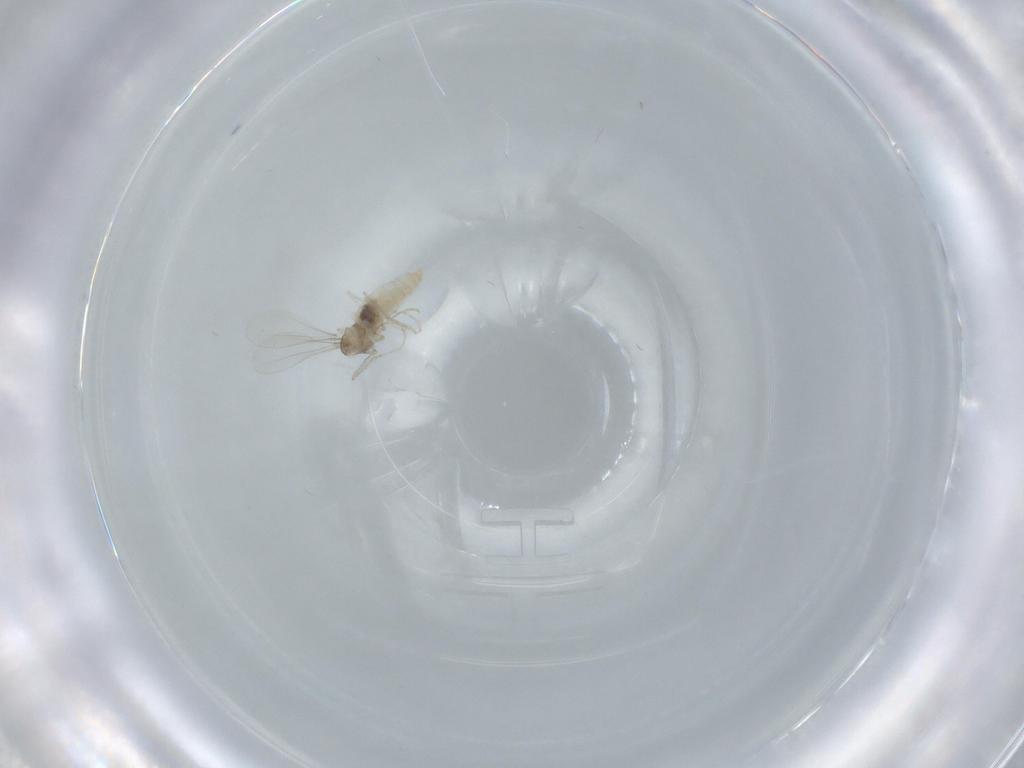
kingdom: Animalia
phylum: Arthropoda
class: Insecta
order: Diptera
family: Cecidomyiidae
